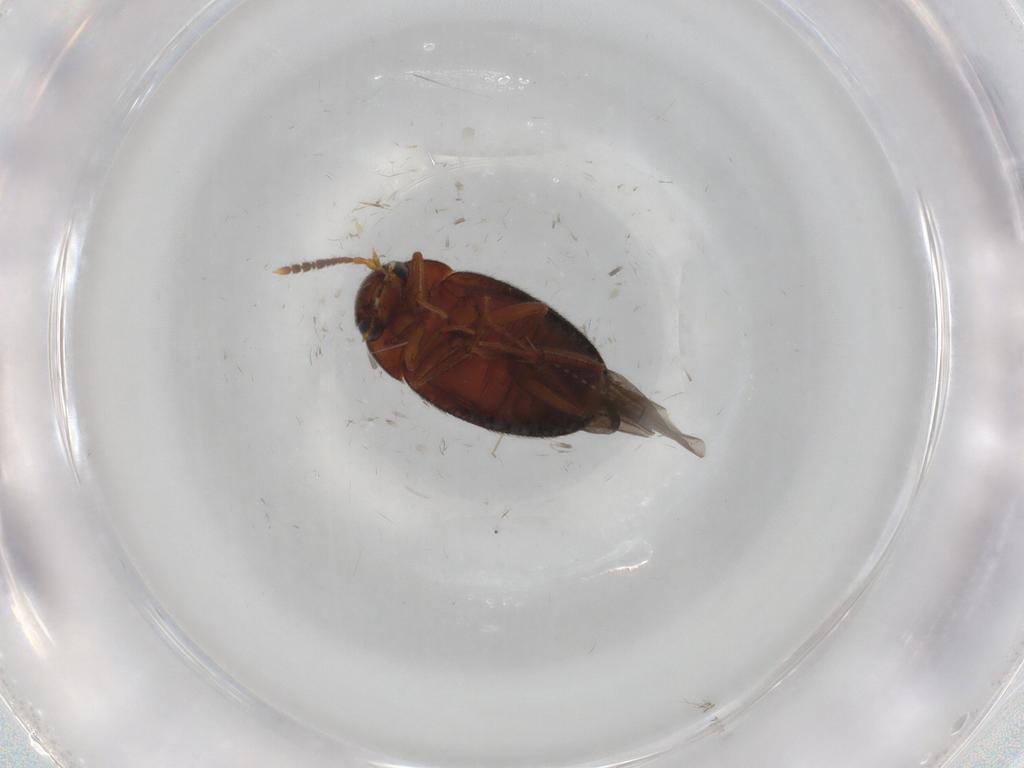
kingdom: Animalia
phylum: Arthropoda
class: Insecta
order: Coleoptera
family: Leiodidae
